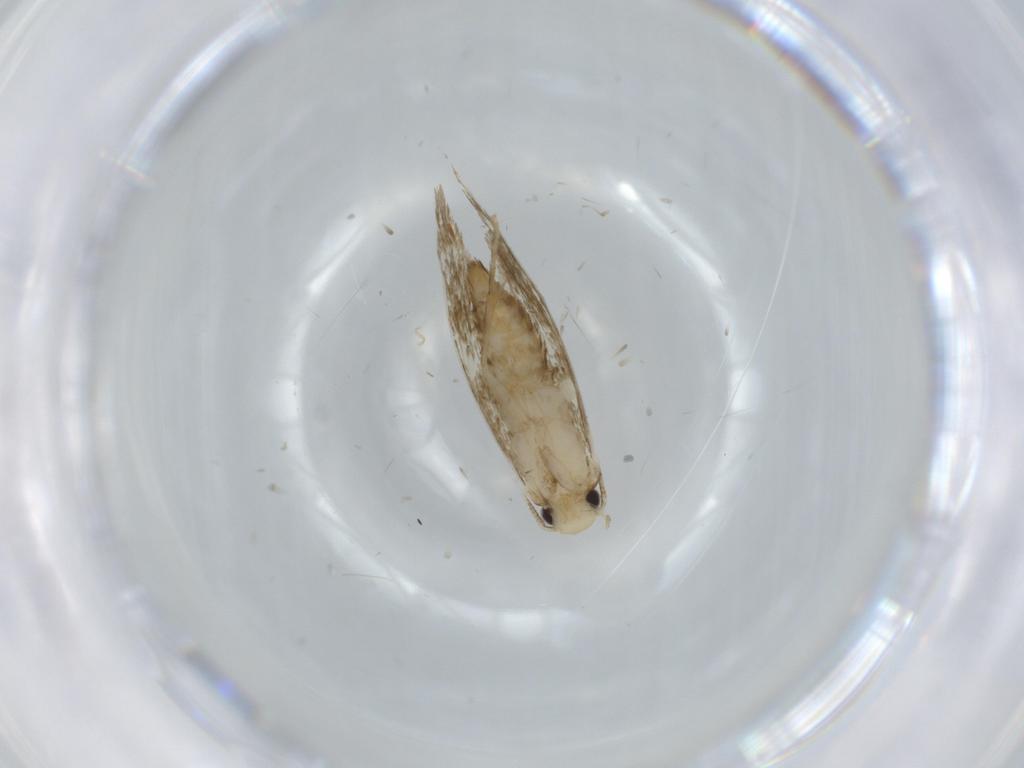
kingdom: Animalia
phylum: Arthropoda
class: Insecta
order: Lepidoptera
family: Tineidae
